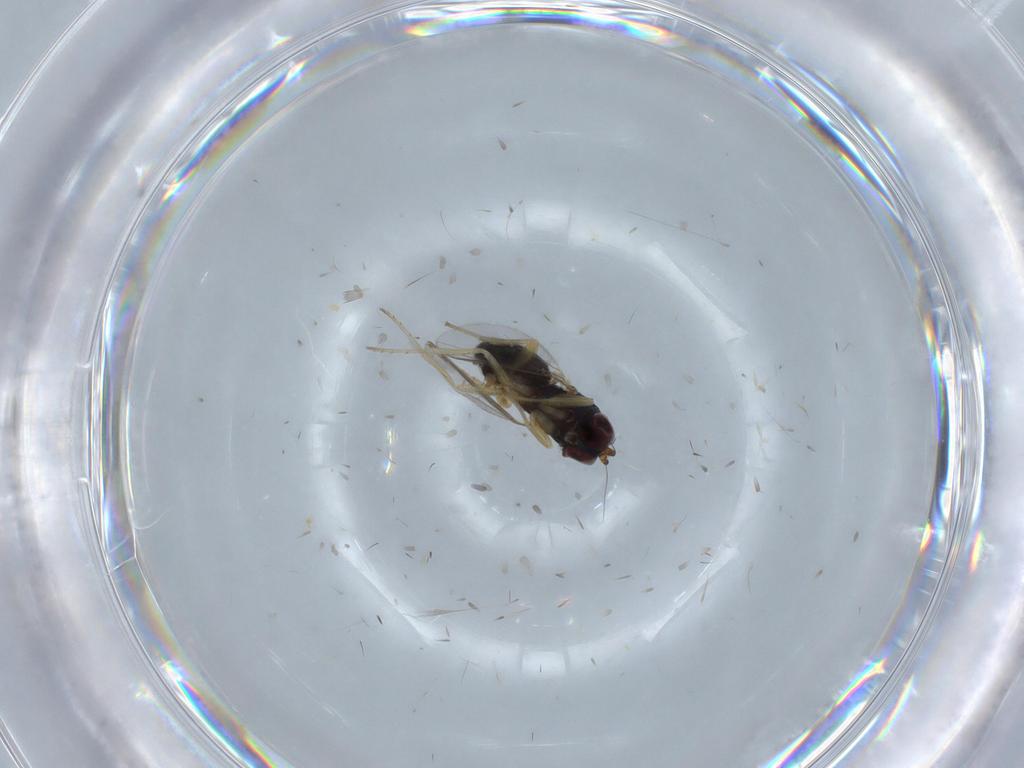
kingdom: Animalia
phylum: Arthropoda
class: Insecta
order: Diptera
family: Dolichopodidae
